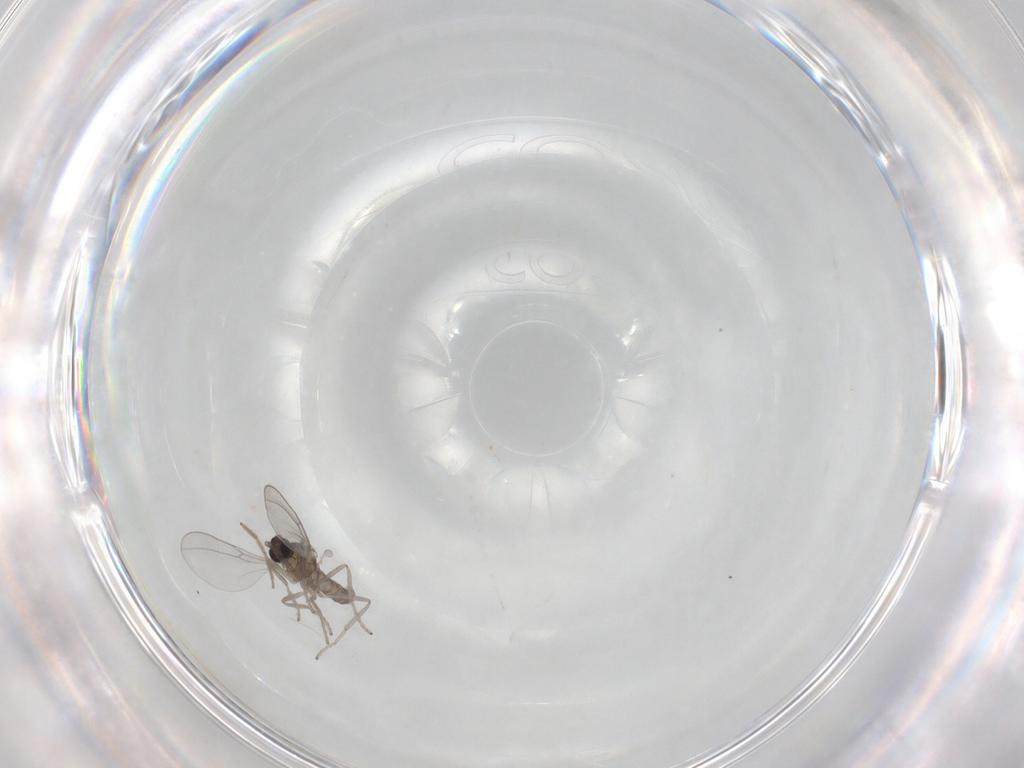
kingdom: Animalia
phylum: Arthropoda
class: Insecta
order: Diptera
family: Cecidomyiidae
